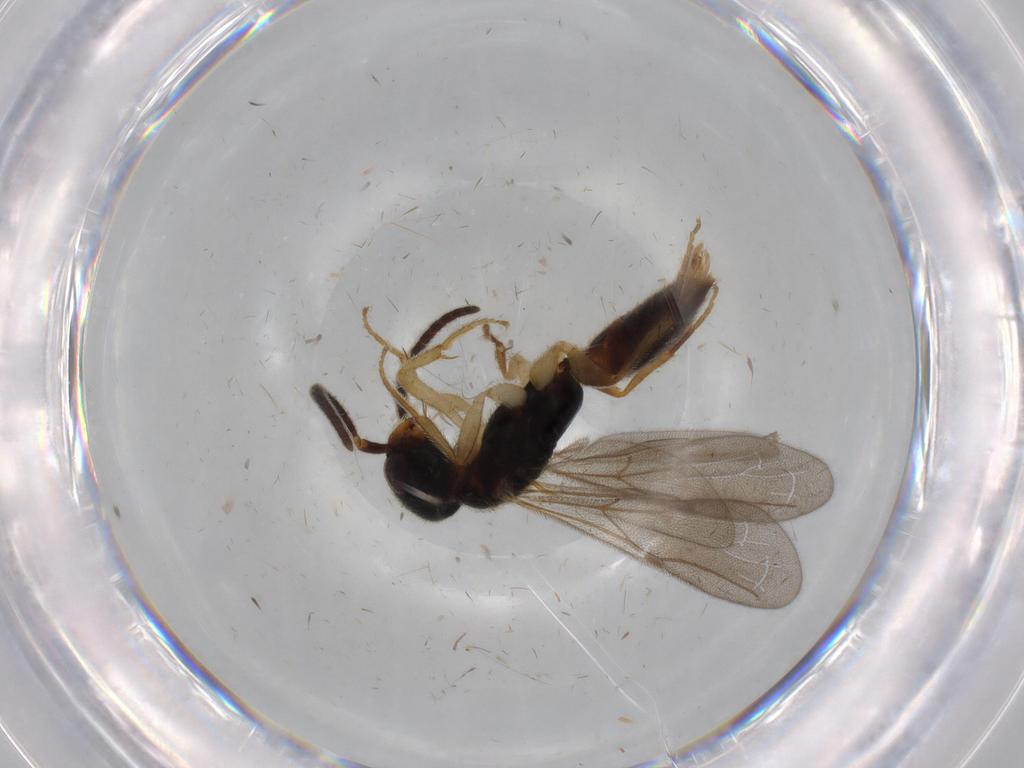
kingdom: Animalia
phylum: Arthropoda
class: Insecta
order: Hymenoptera
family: Bethylidae
